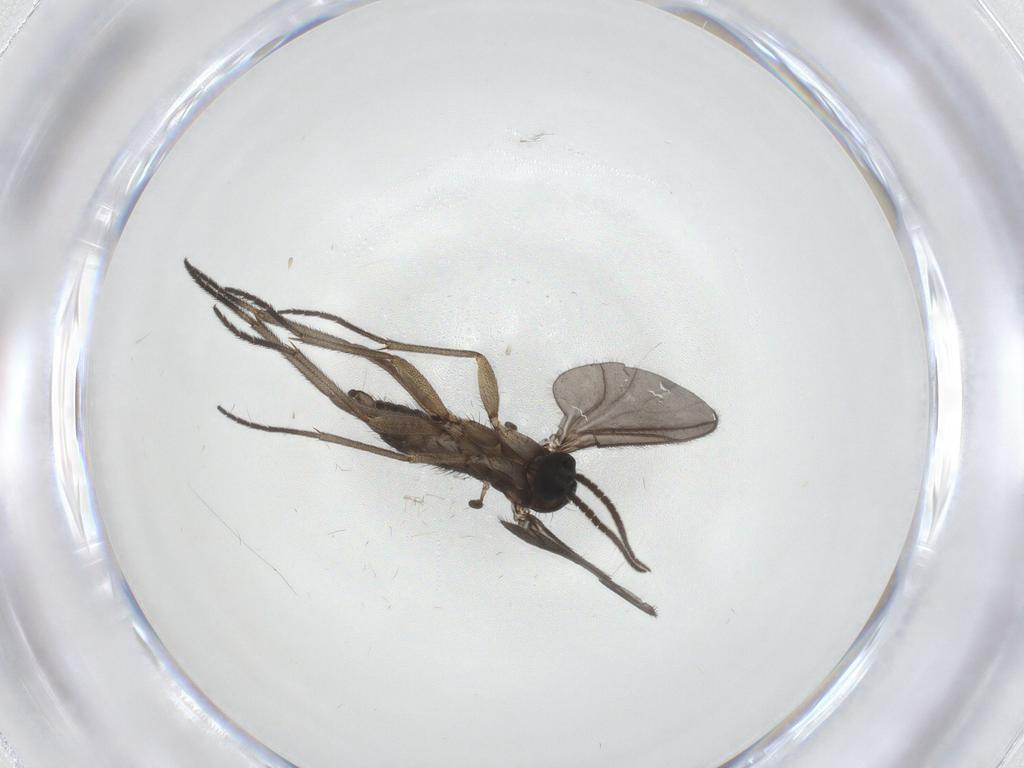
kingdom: Animalia
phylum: Arthropoda
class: Insecta
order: Diptera
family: Sciaridae
